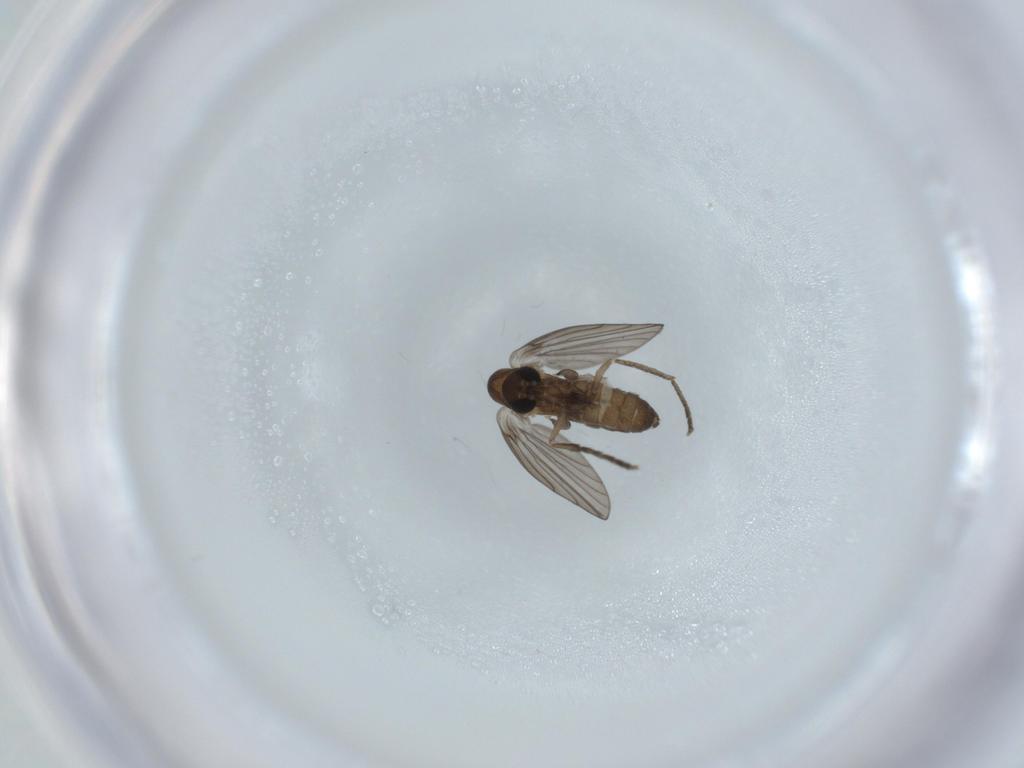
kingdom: Animalia
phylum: Arthropoda
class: Insecta
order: Diptera
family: Psychodidae
